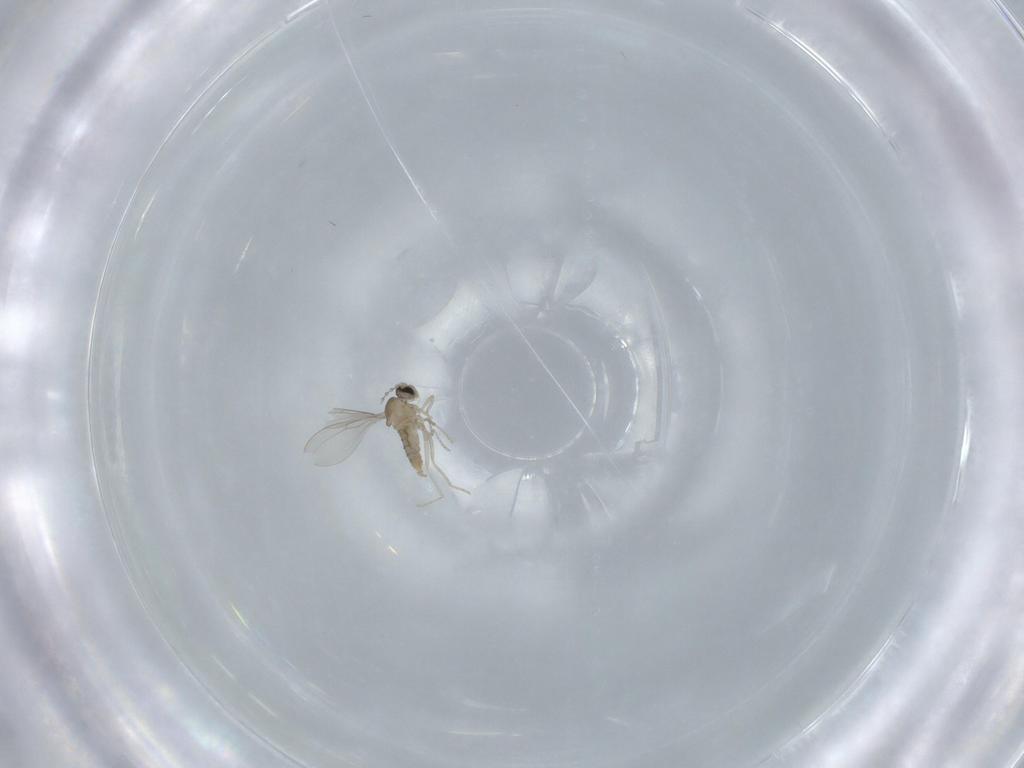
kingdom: Animalia
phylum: Arthropoda
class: Insecta
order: Diptera
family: Cecidomyiidae
